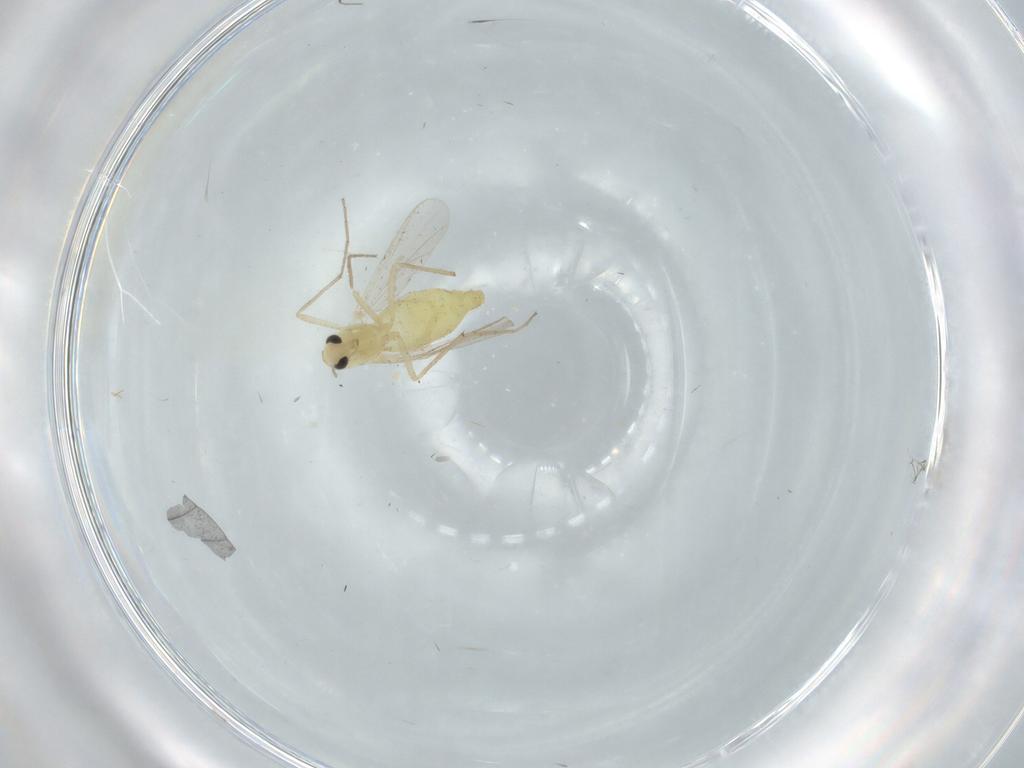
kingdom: Animalia
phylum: Arthropoda
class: Insecta
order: Diptera
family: Chironomidae
